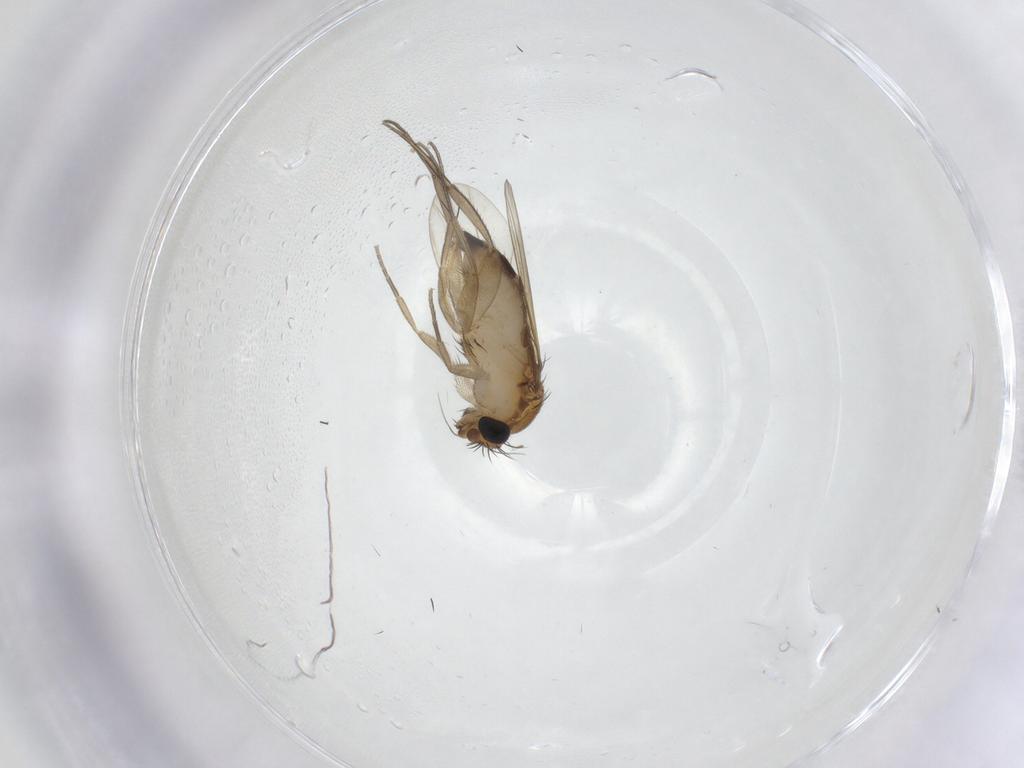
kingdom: Animalia
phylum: Arthropoda
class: Insecta
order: Diptera
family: Phoridae
